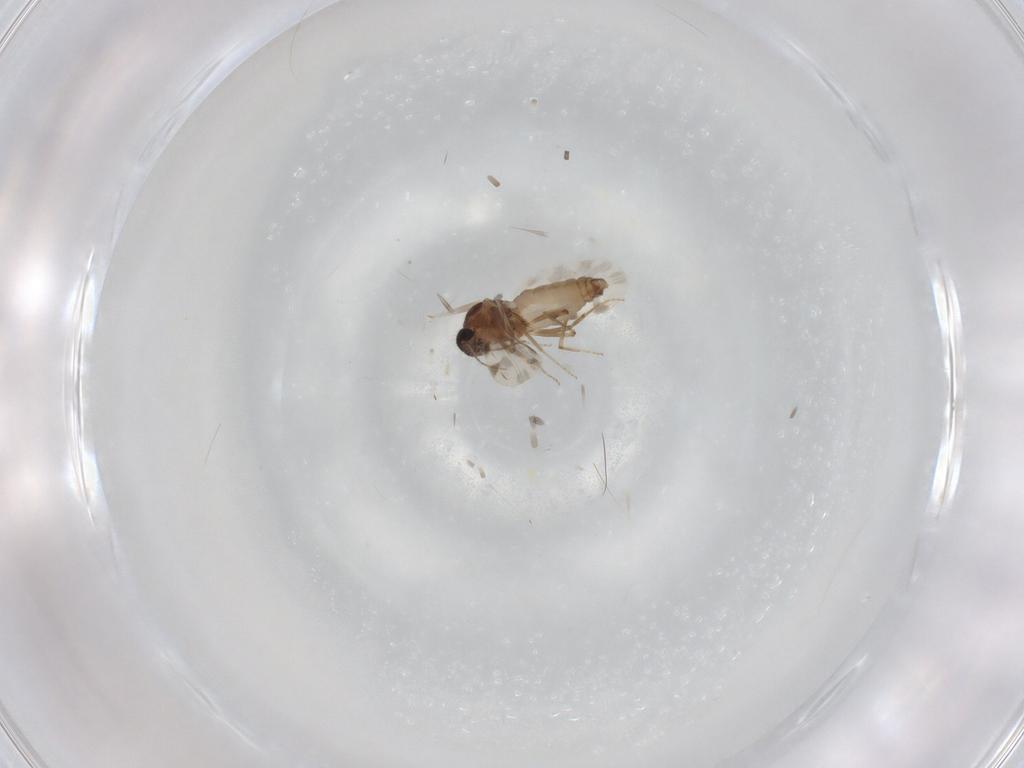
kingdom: Animalia
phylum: Arthropoda
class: Insecta
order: Diptera
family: Ceratopogonidae
